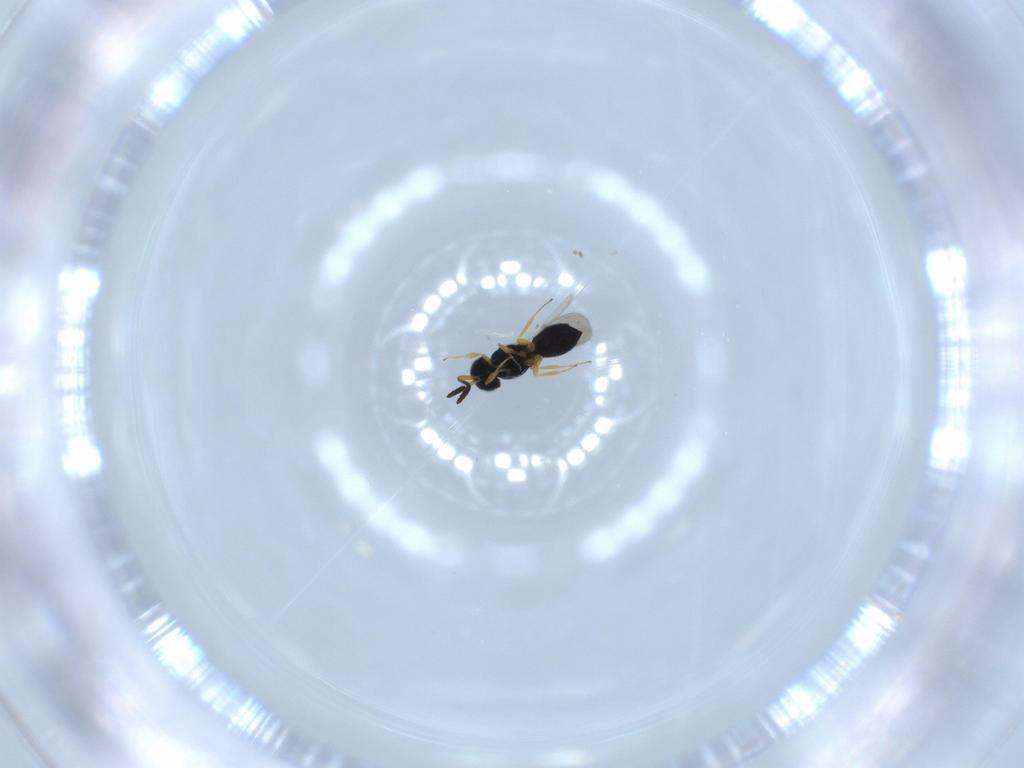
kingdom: Animalia
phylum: Arthropoda
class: Insecta
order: Hymenoptera
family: Scelionidae
